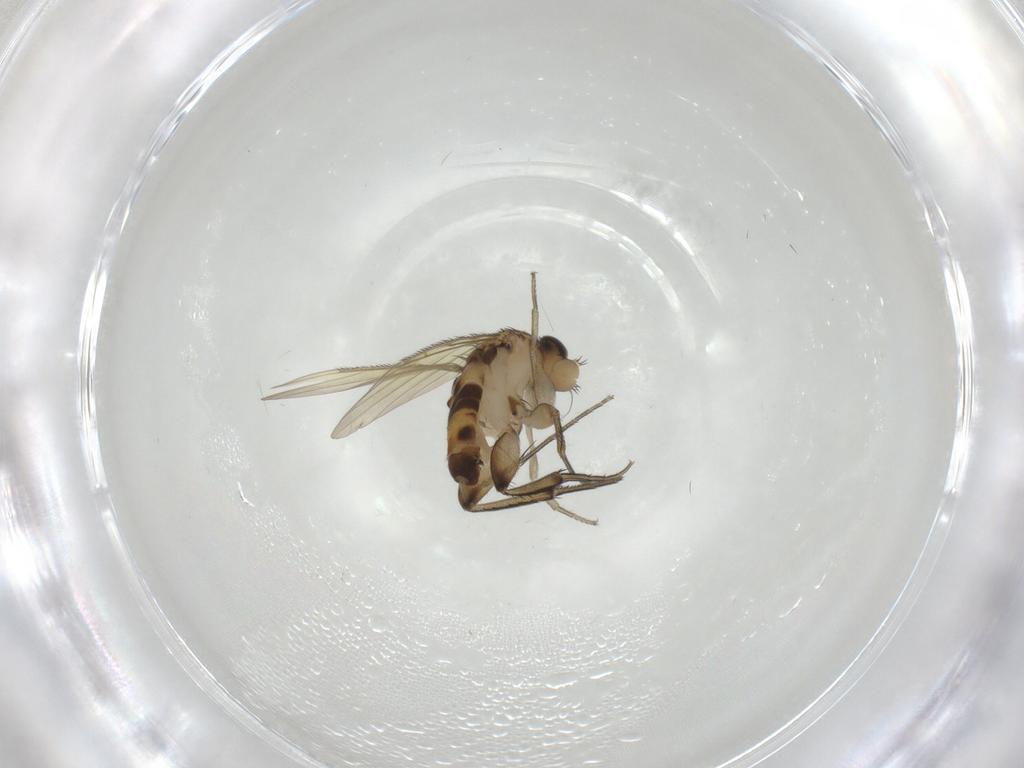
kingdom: Animalia
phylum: Arthropoda
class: Insecta
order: Diptera
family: Phoridae
